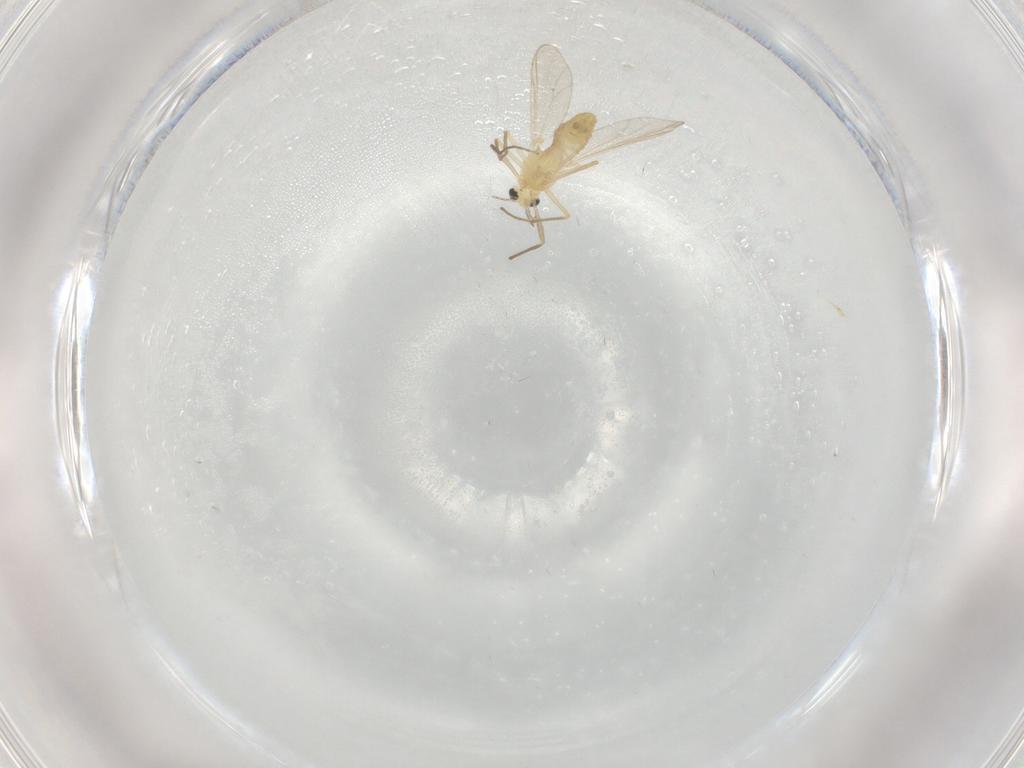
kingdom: Animalia
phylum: Arthropoda
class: Insecta
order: Diptera
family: Chironomidae
